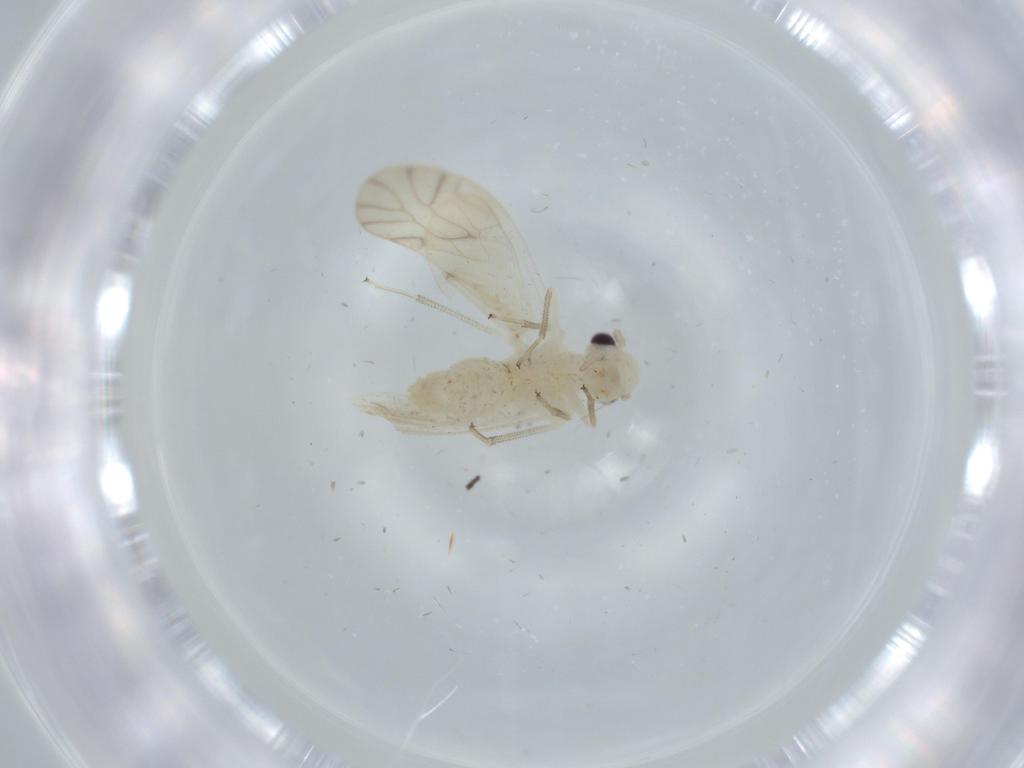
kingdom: Animalia
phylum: Arthropoda
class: Insecta
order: Psocodea
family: Caeciliusidae
